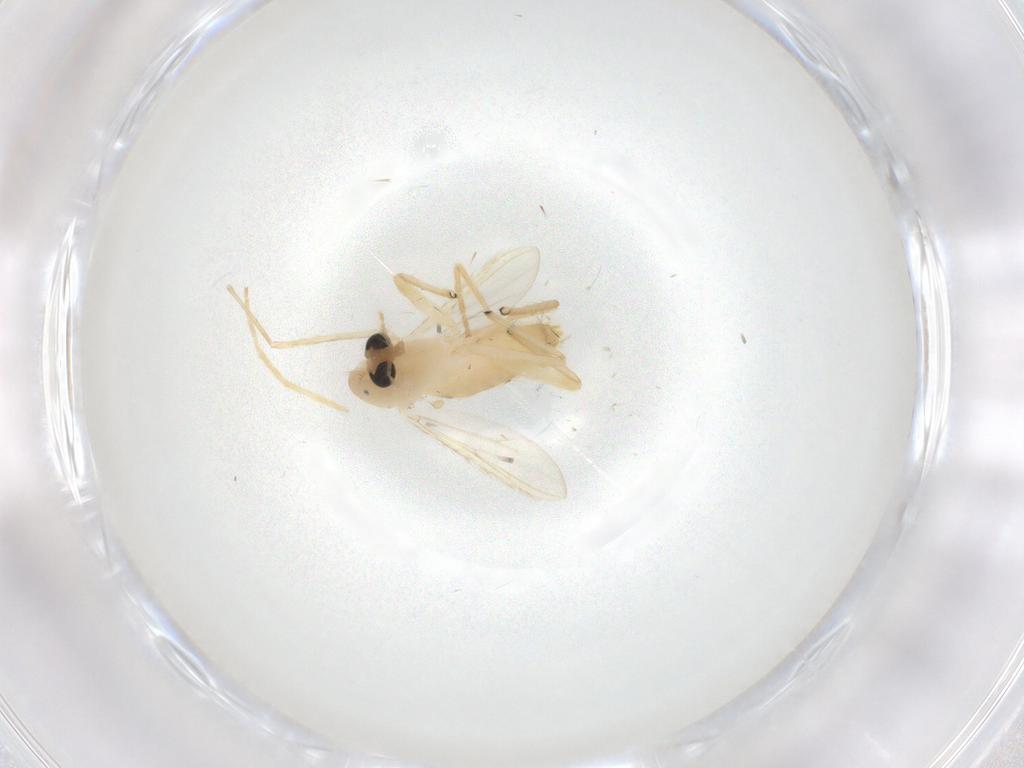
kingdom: Animalia
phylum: Arthropoda
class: Insecta
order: Diptera
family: Chironomidae
